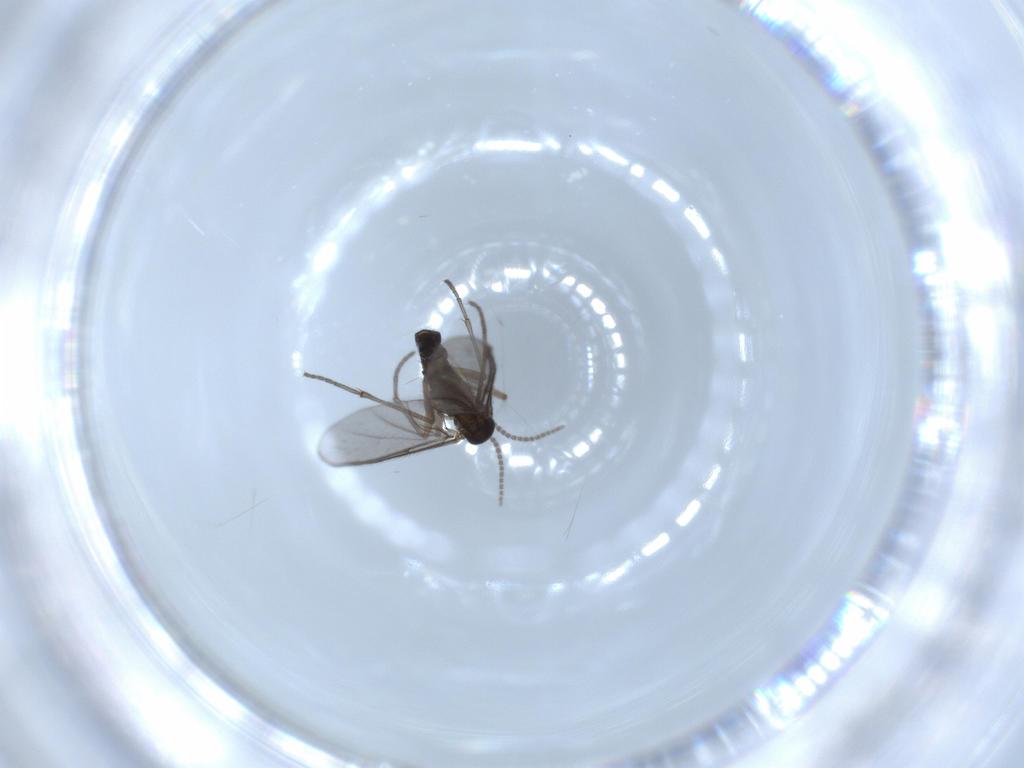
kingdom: Animalia
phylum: Arthropoda
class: Insecta
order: Diptera
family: Sciaridae
